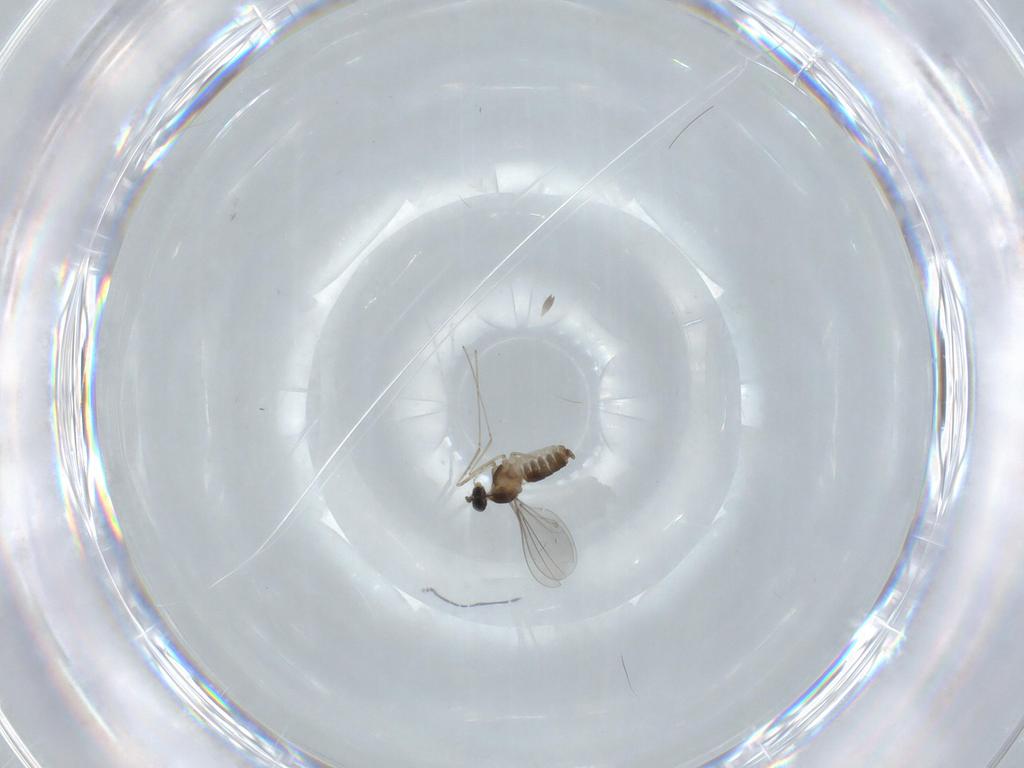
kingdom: Animalia
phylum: Arthropoda
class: Insecta
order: Diptera
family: Cecidomyiidae
